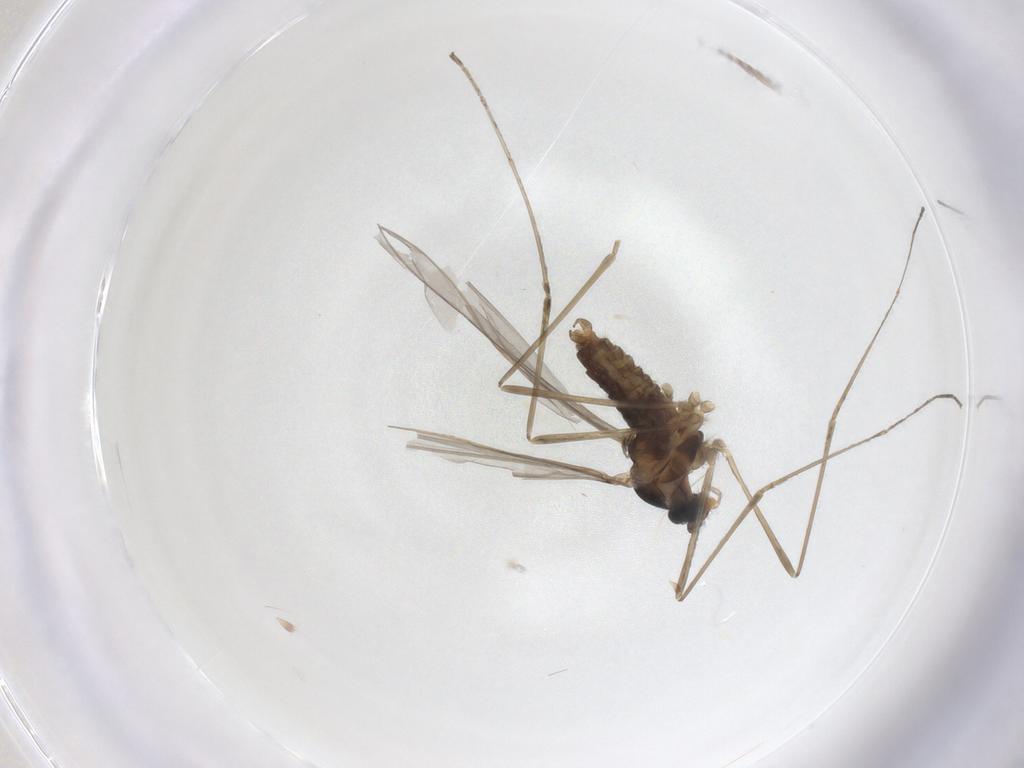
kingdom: Animalia
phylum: Arthropoda
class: Insecta
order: Diptera
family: Cecidomyiidae
